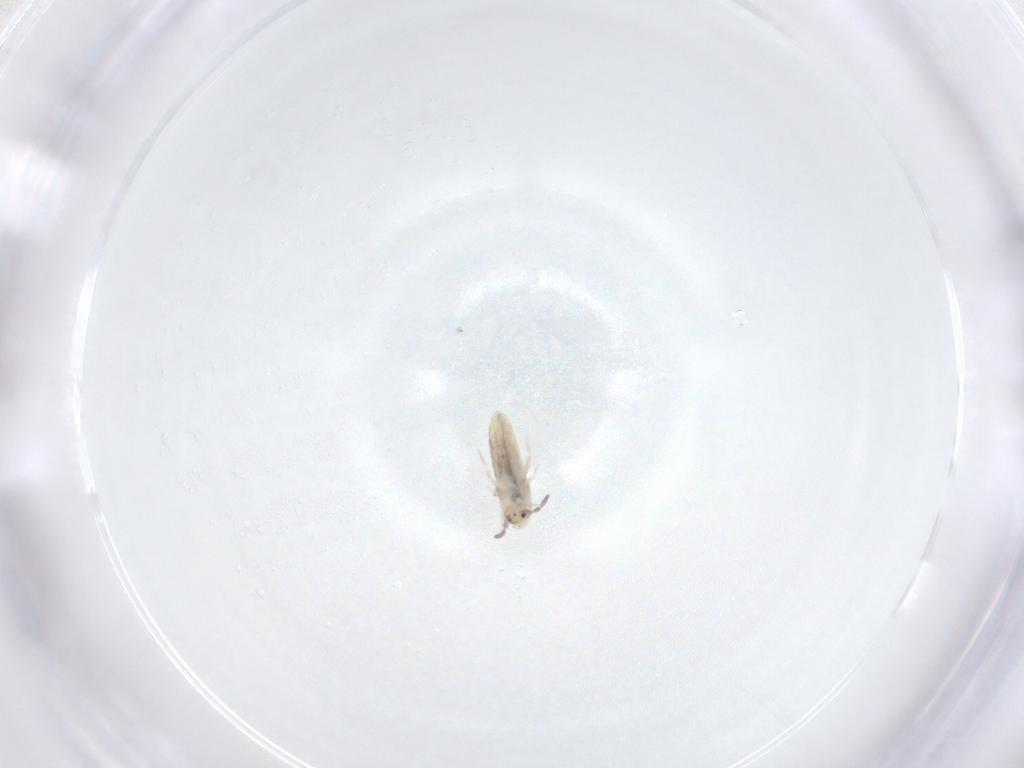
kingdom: Animalia
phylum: Arthropoda
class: Collembola
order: Entomobryomorpha
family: Entomobryidae
